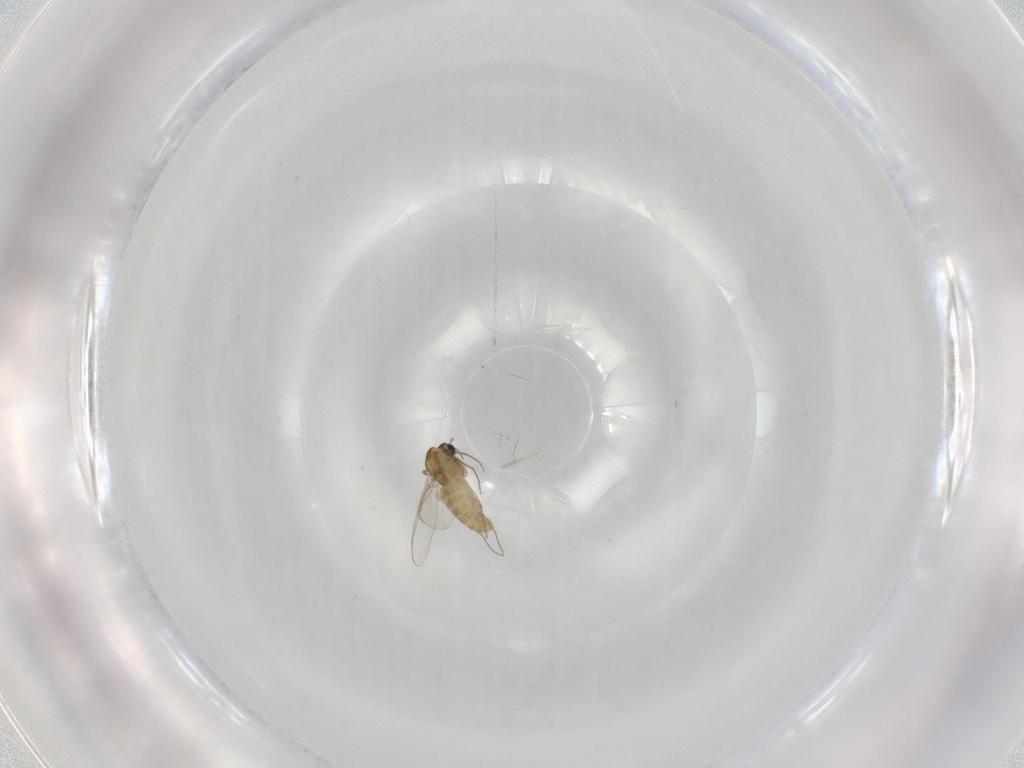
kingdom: Animalia
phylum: Arthropoda
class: Insecta
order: Diptera
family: Chironomidae
